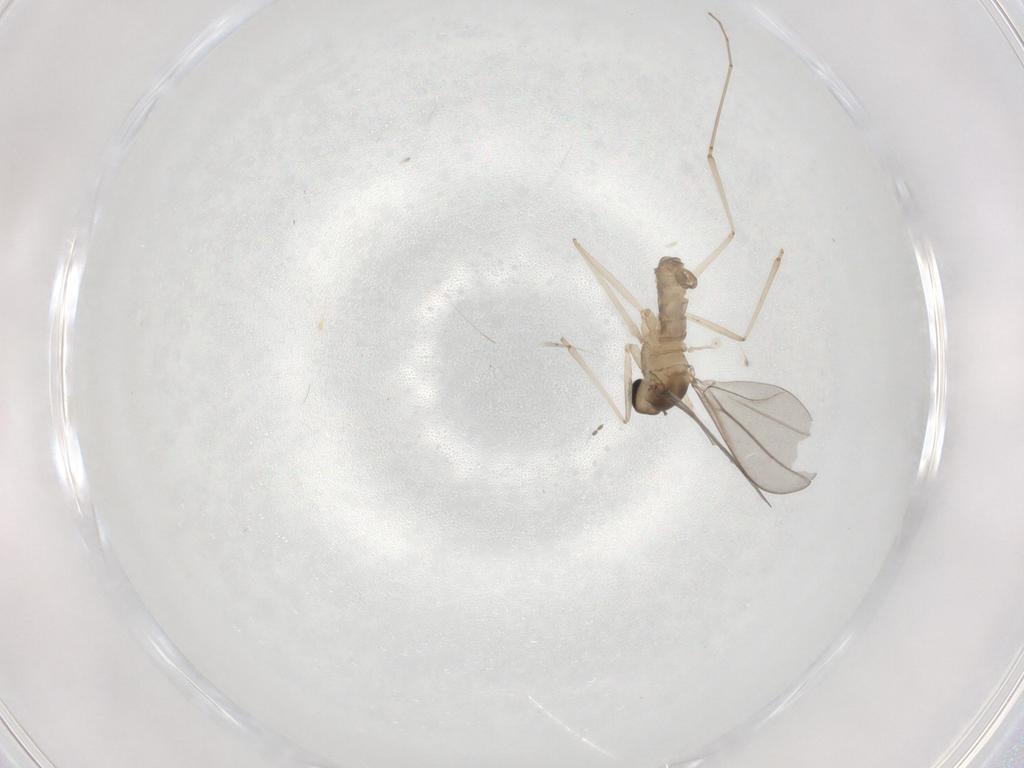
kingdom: Animalia
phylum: Arthropoda
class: Insecta
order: Diptera
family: Cecidomyiidae
